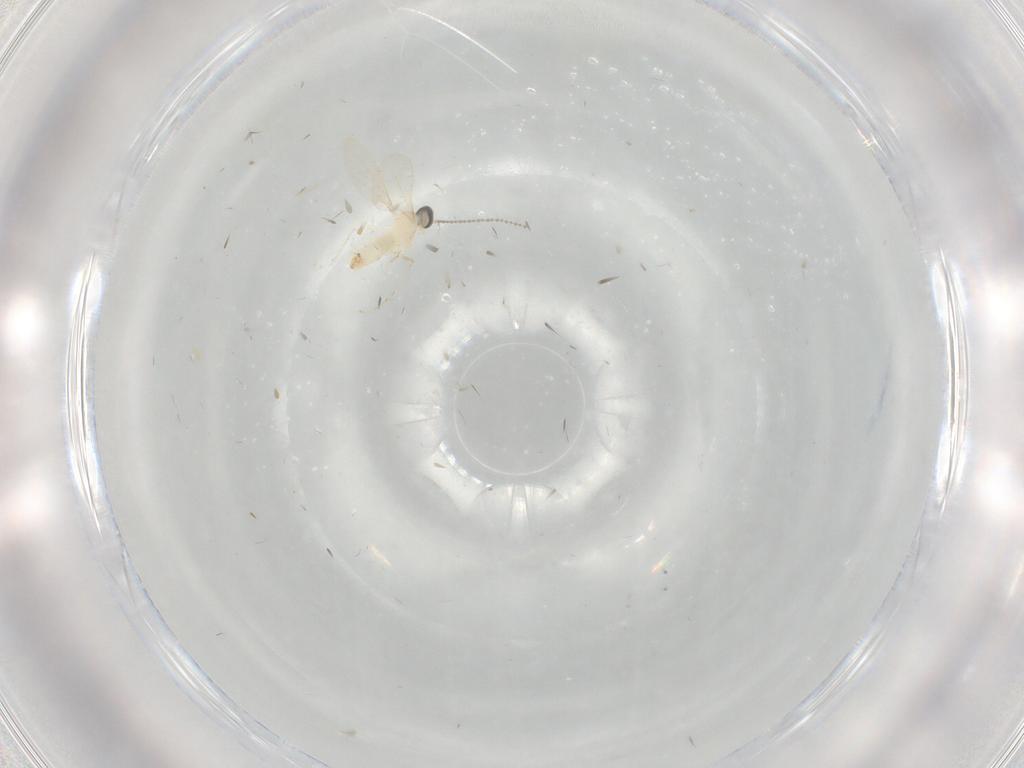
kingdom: Animalia
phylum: Arthropoda
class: Insecta
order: Diptera
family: Cecidomyiidae
